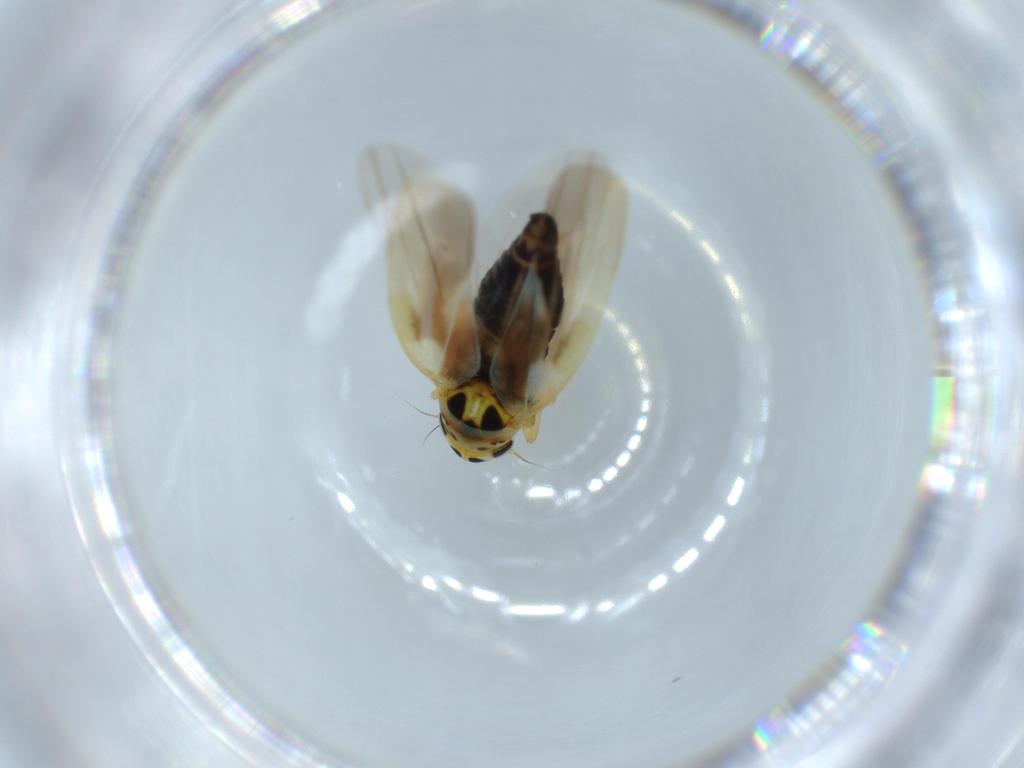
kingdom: Animalia
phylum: Arthropoda
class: Insecta
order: Hemiptera
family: Cicadellidae
